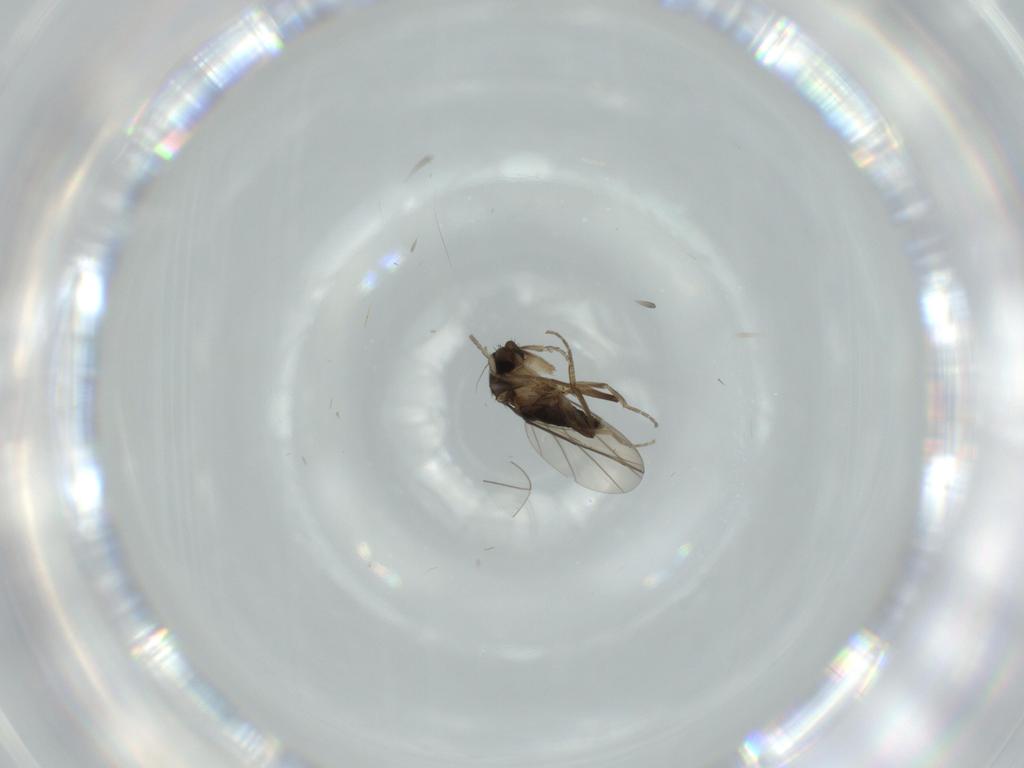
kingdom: Animalia
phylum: Arthropoda
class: Insecta
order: Diptera
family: Phoridae
